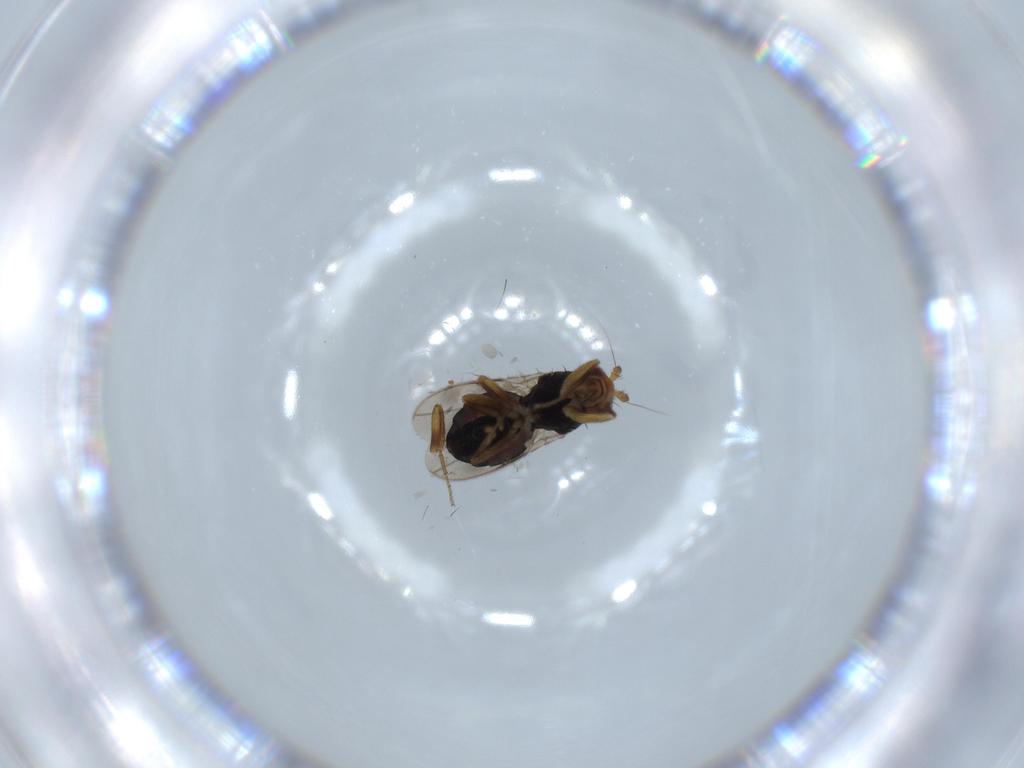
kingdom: Animalia
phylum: Arthropoda
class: Insecta
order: Diptera
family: Sphaeroceridae
